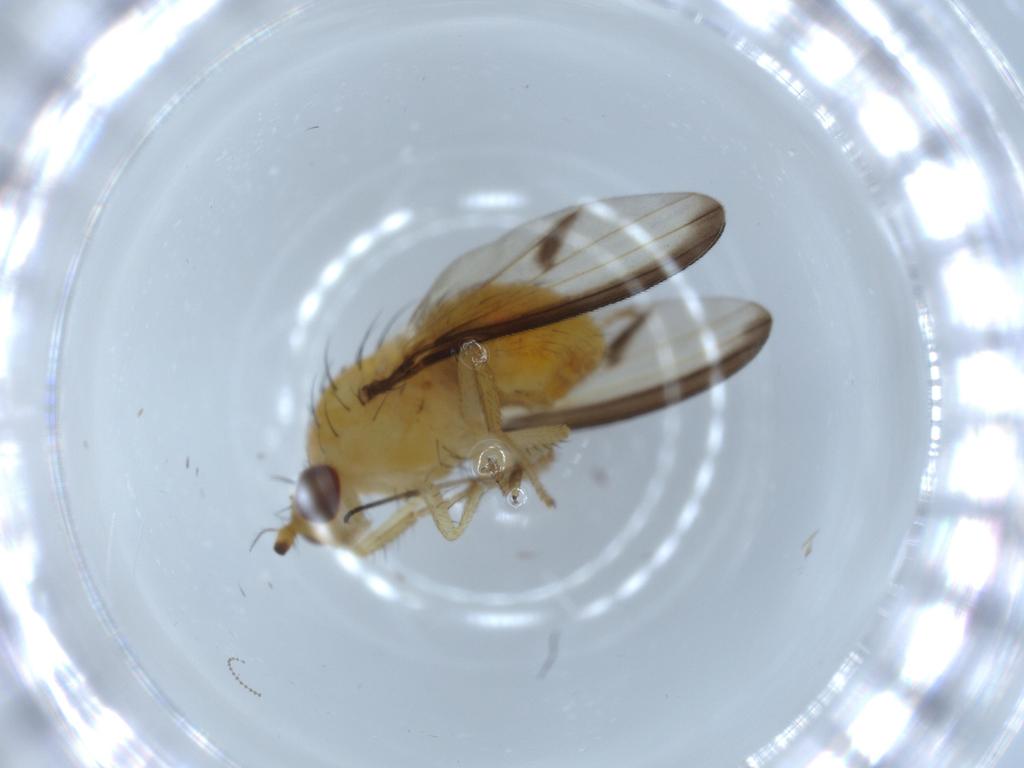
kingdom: Animalia
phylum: Arthropoda
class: Insecta
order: Diptera
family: Lauxaniidae
